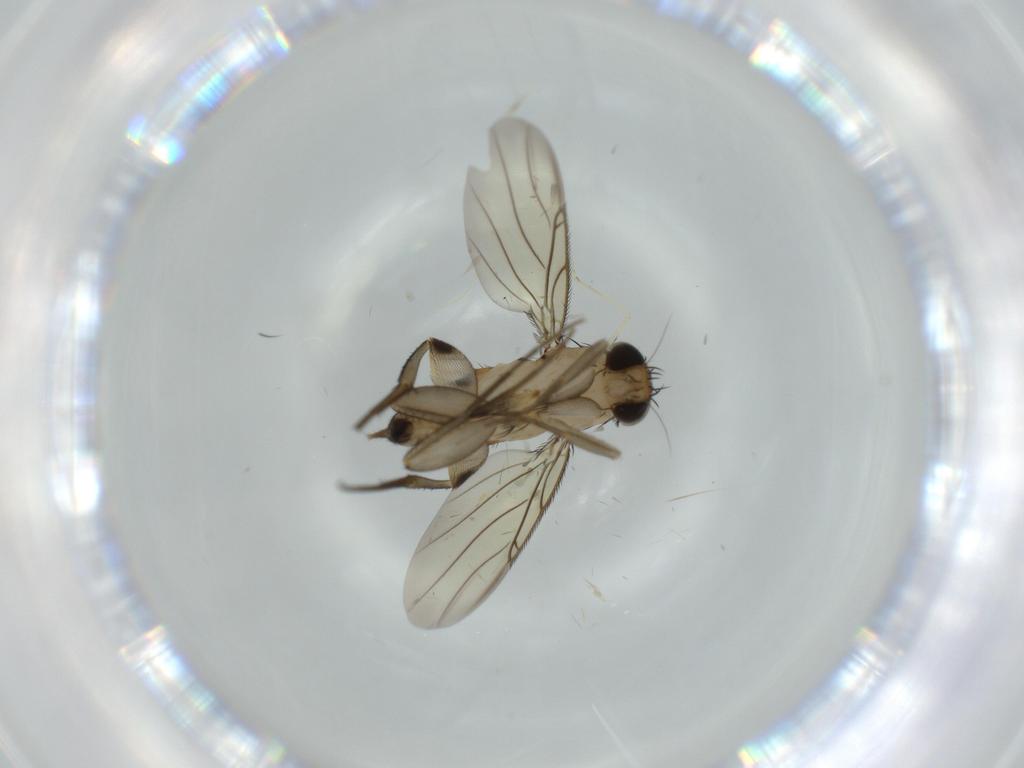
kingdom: Animalia
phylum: Arthropoda
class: Insecta
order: Diptera
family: Phoridae
